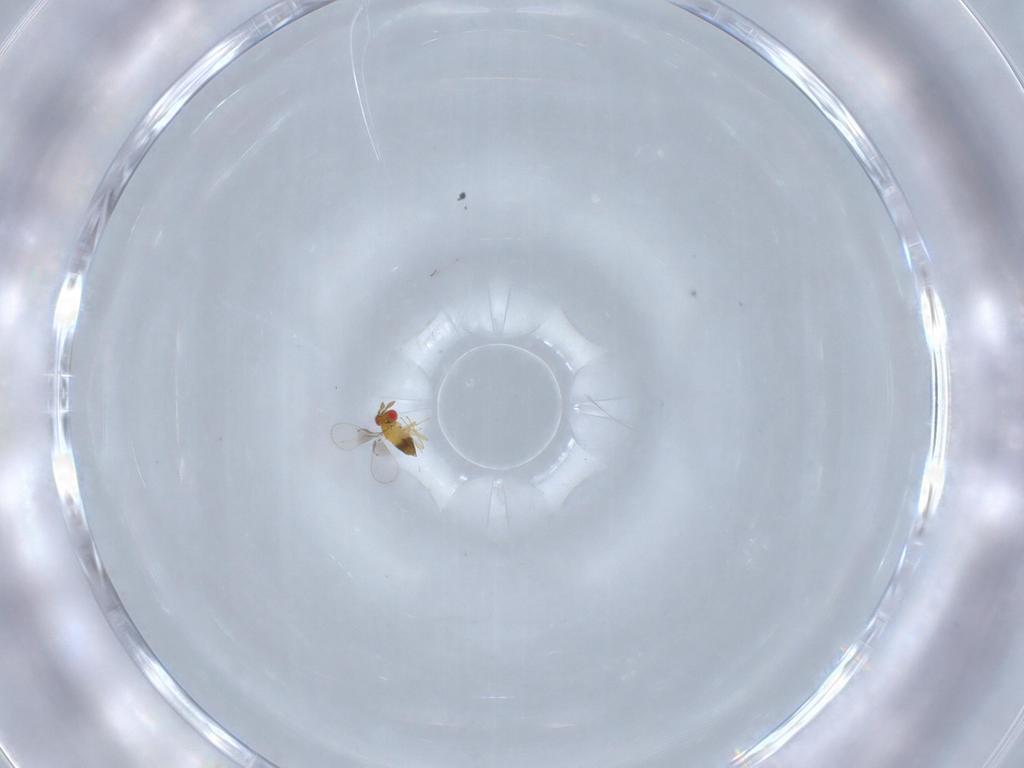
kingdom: Animalia
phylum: Arthropoda
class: Insecta
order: Hymenoptera
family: Trichogrammatidae
